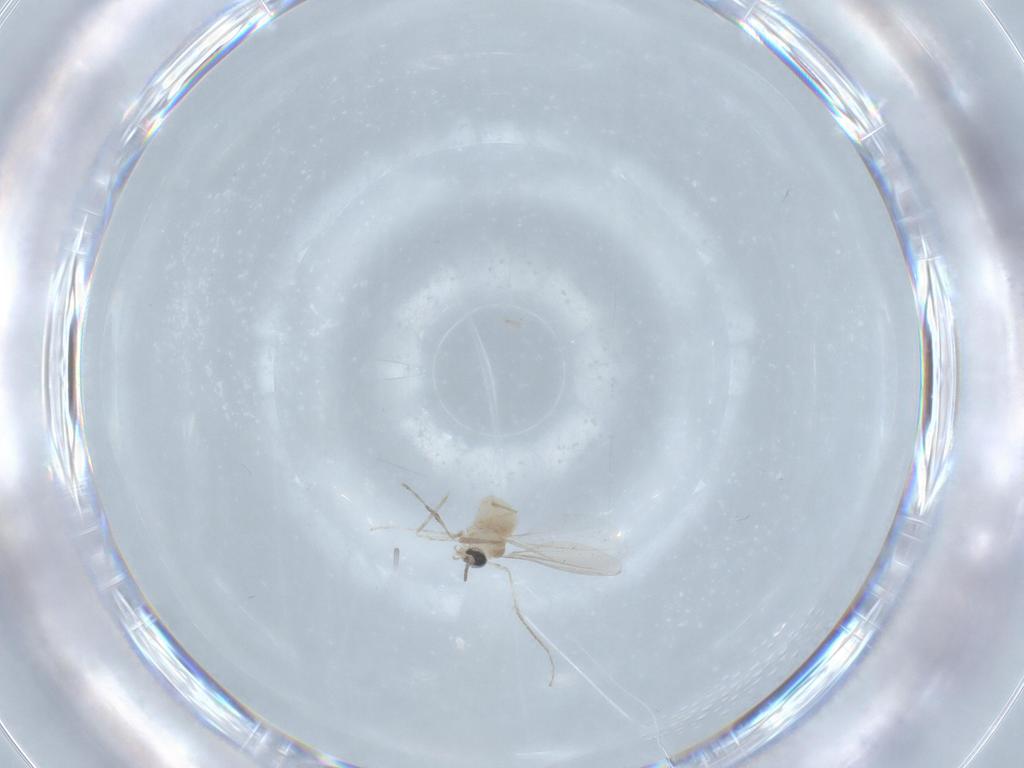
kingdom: Animalia
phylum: Arthropoda
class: Insecta
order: Diptera
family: Cecidomyiidae
